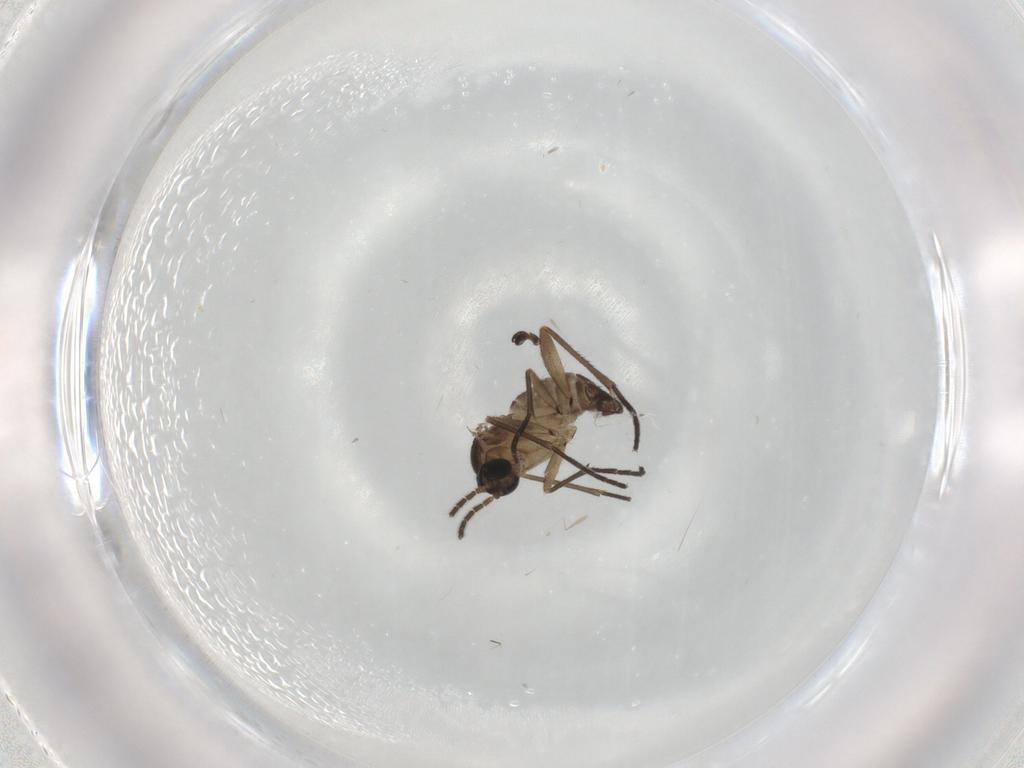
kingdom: Animalia
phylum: Arthropoda
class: Insecta
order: Diptera
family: Sciaridae
